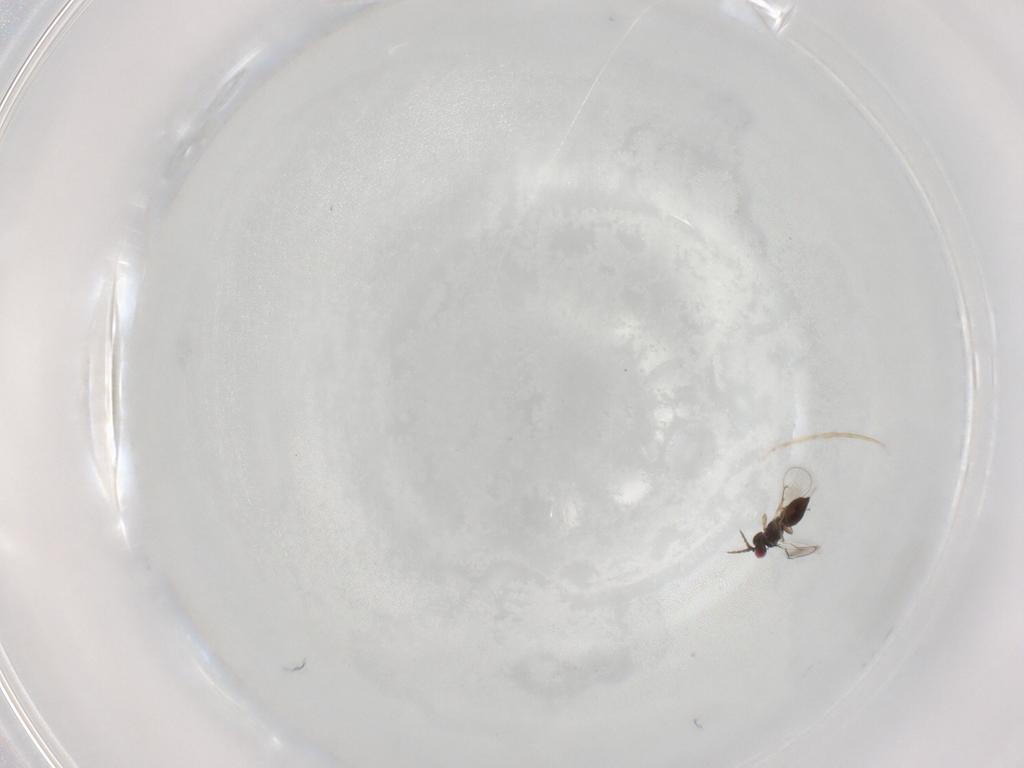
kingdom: Animalia
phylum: Arthropoda
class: Insecta
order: Hymenoptera
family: Eulophidae
